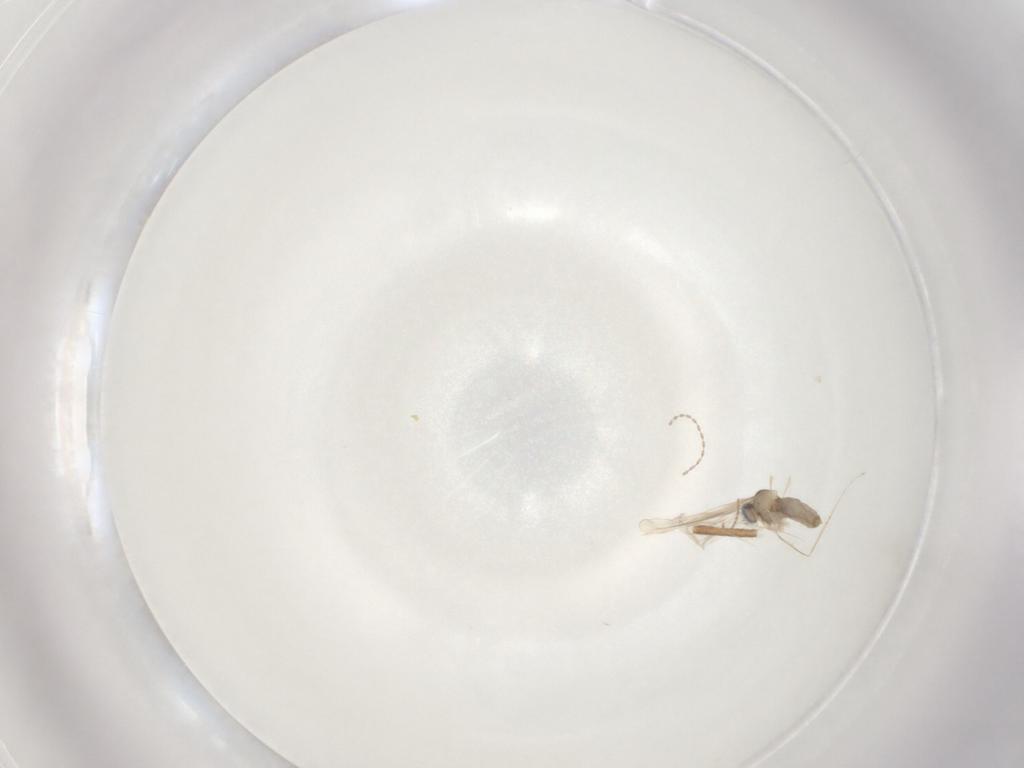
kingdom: Animalia
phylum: Arthropoda
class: Insecta
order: Diptera
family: Cecidomyiidae
